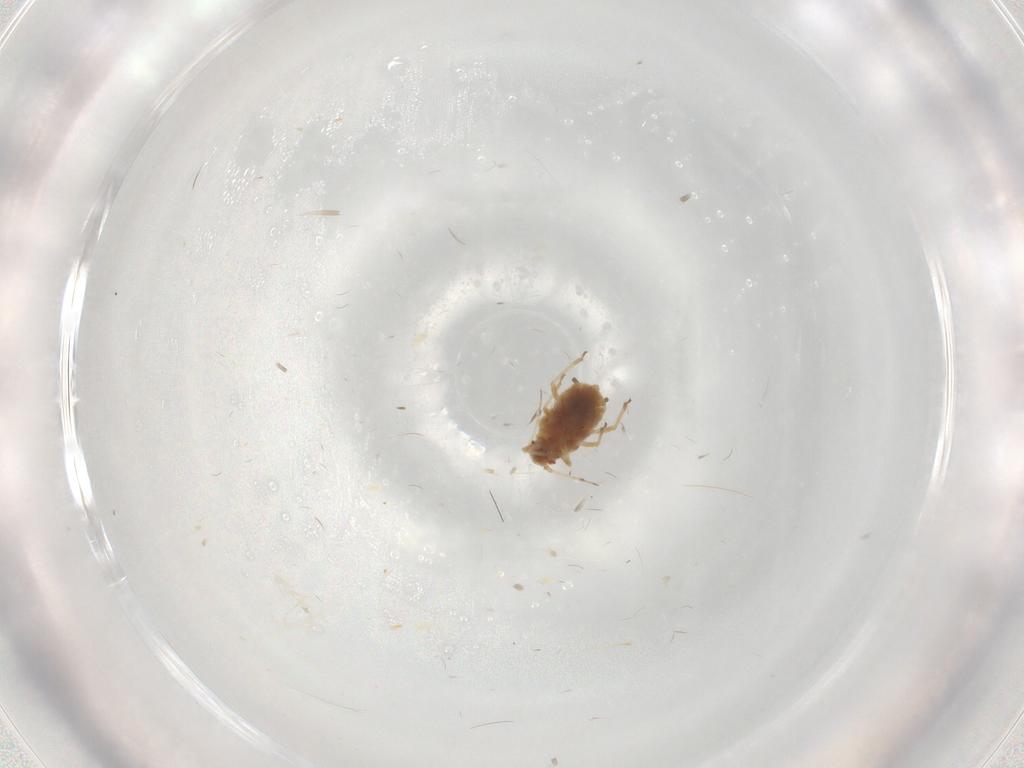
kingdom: Animalia
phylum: Arthropoda
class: Insecta
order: Hemiptera
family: Aphididae
